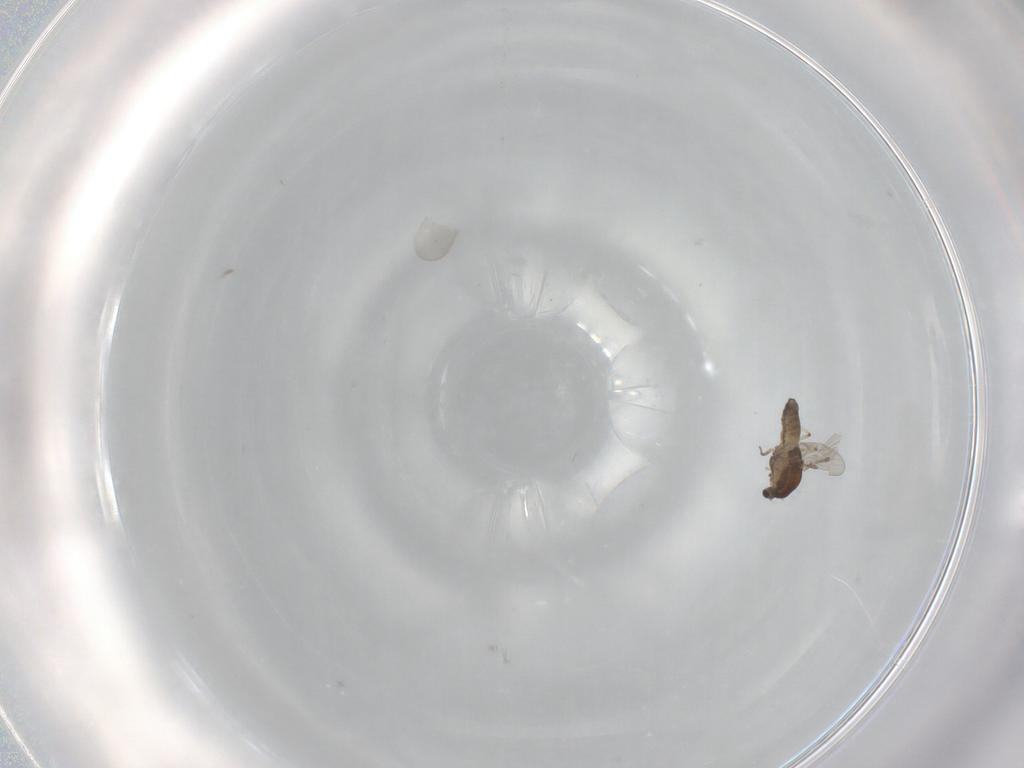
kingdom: Animalia
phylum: Arthropoda
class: Insecta
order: Diptera
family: Chironomidae
